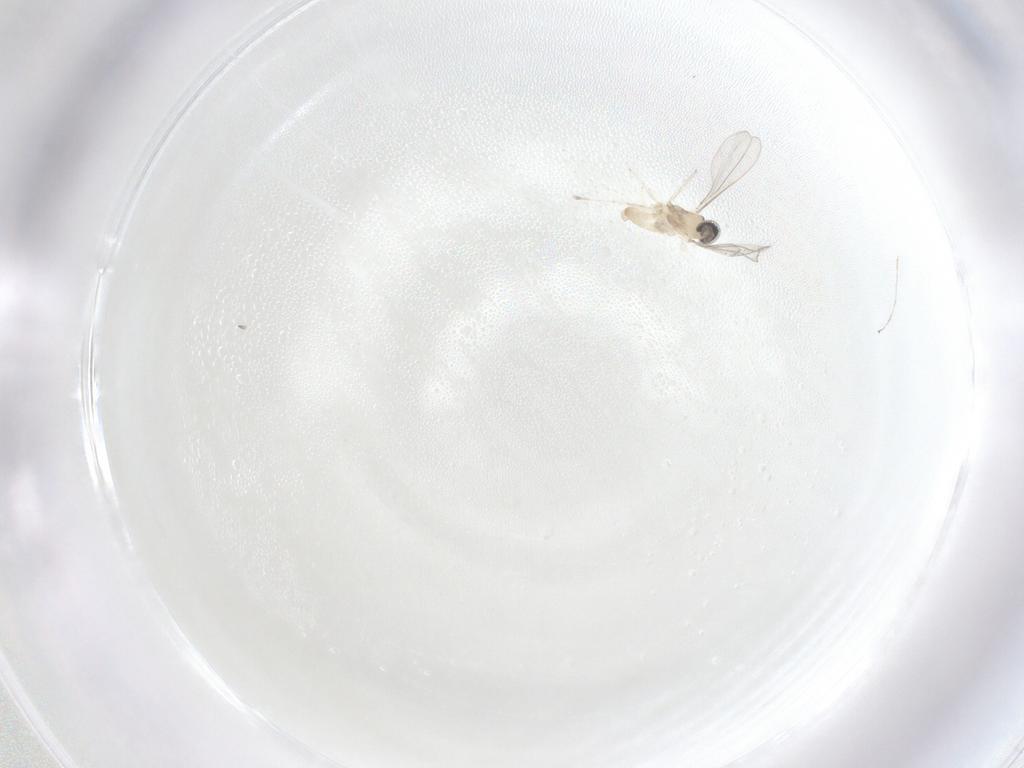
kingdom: Animalia
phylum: Arthropoda
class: Insecta
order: Diptera
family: Cecidomyiidae
